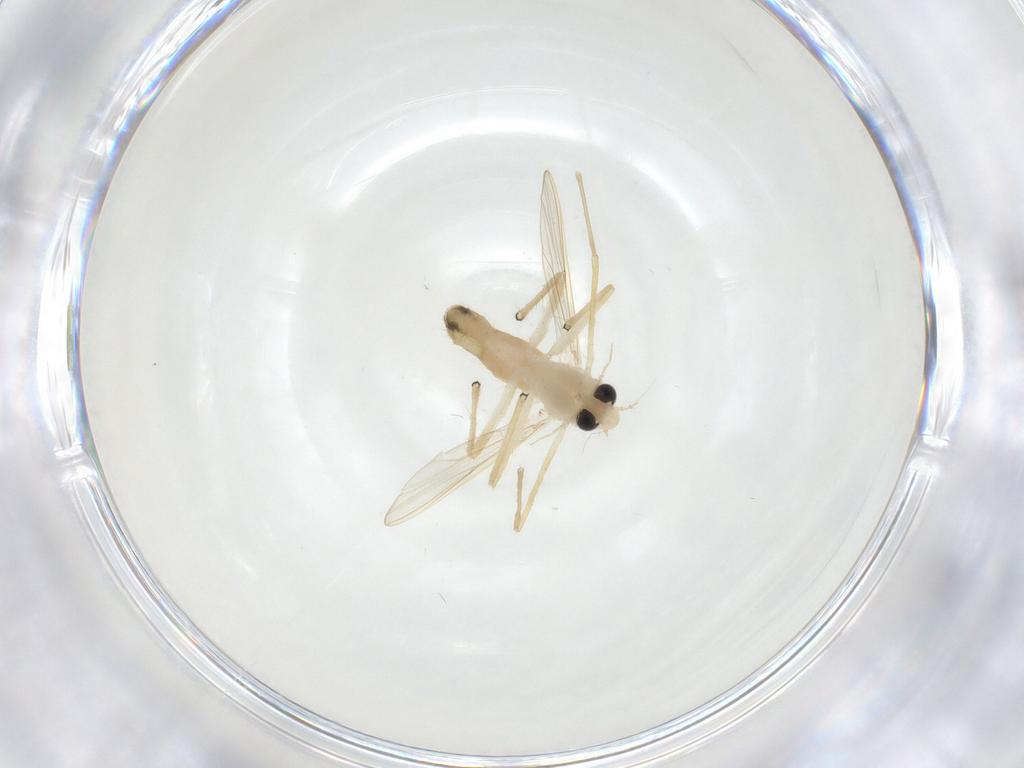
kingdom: Animalia
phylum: Arthropoda
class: Insecta
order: Diptera
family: Chironomidae
